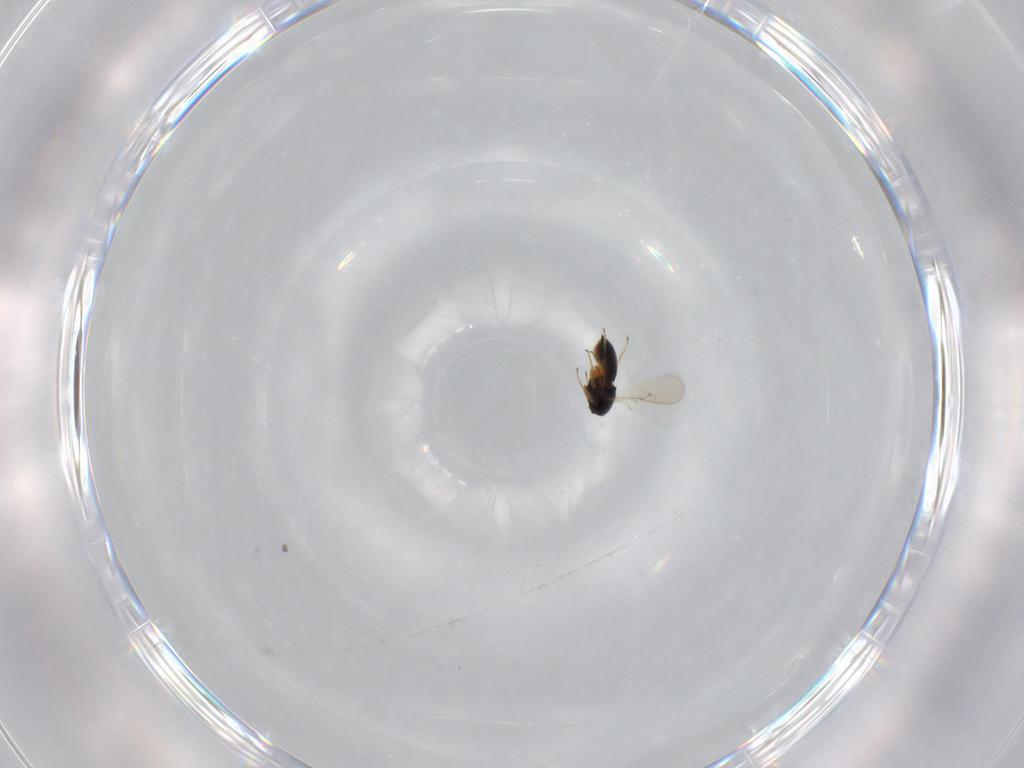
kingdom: Animalia
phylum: Arthropoda
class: Insecta
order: Hymenoptera
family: Scelionidae
